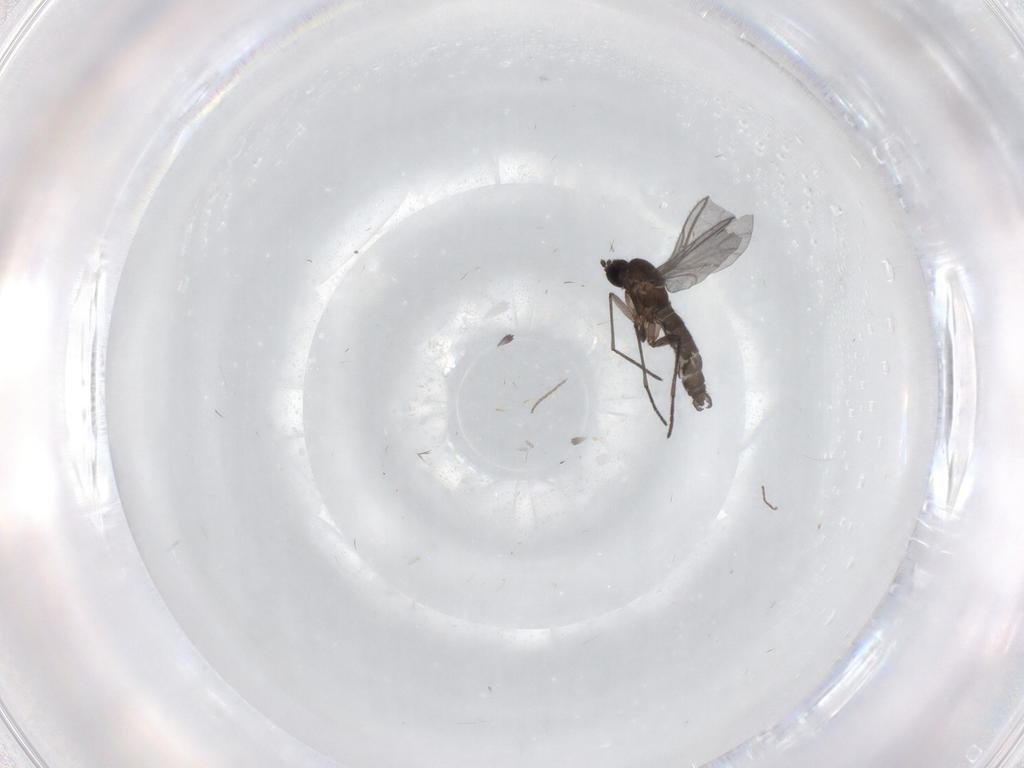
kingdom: Animalia
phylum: Arthropoda
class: Insecta
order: Diptera
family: Cecidomyiidae
